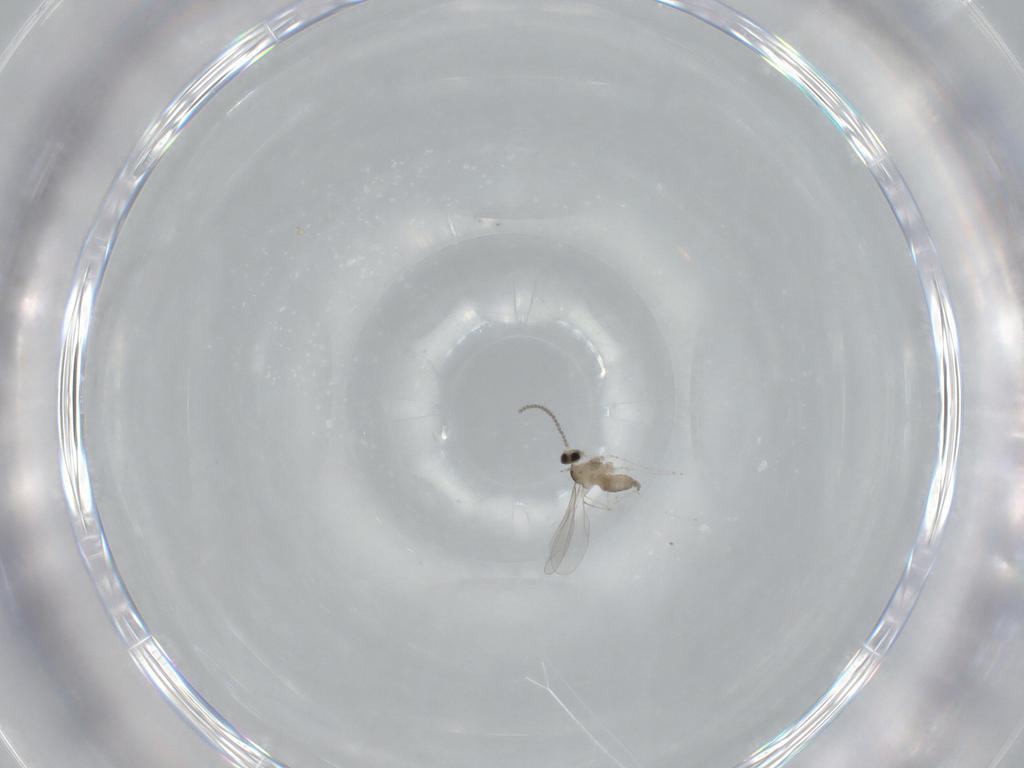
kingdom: Animalia
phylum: Arthropoda
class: Insecta
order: Diptera
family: Cecidomyiidae
